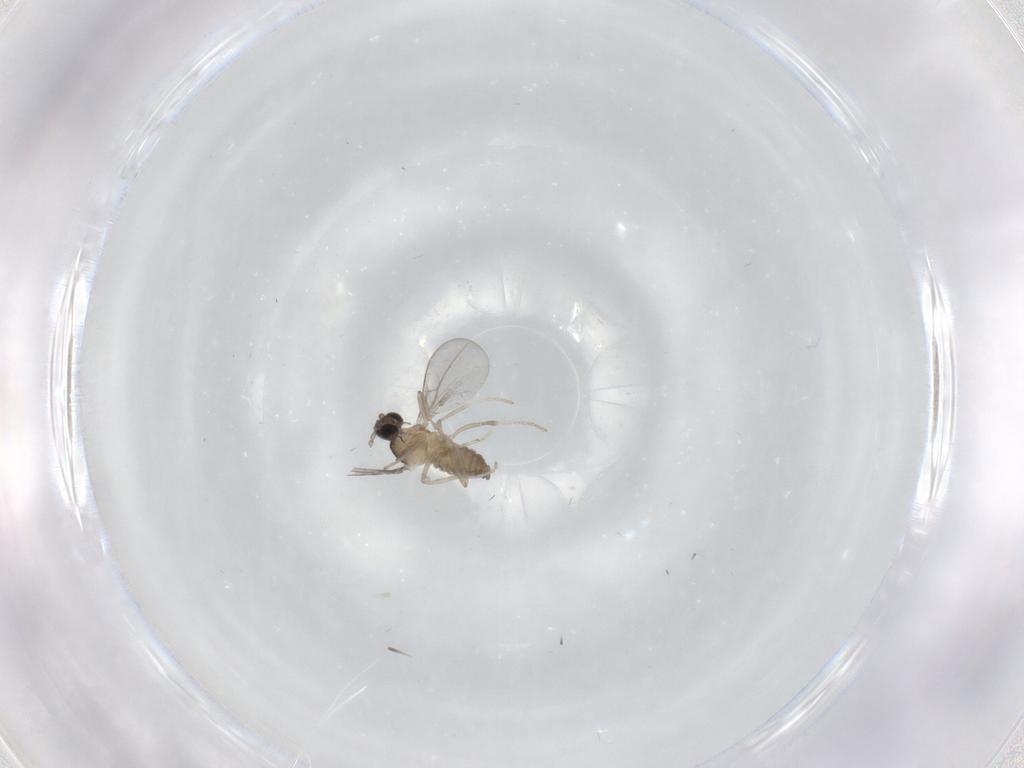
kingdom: Animalia
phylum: Arthropoda
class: Insecta
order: Diptera
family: Cecidomyiidae
